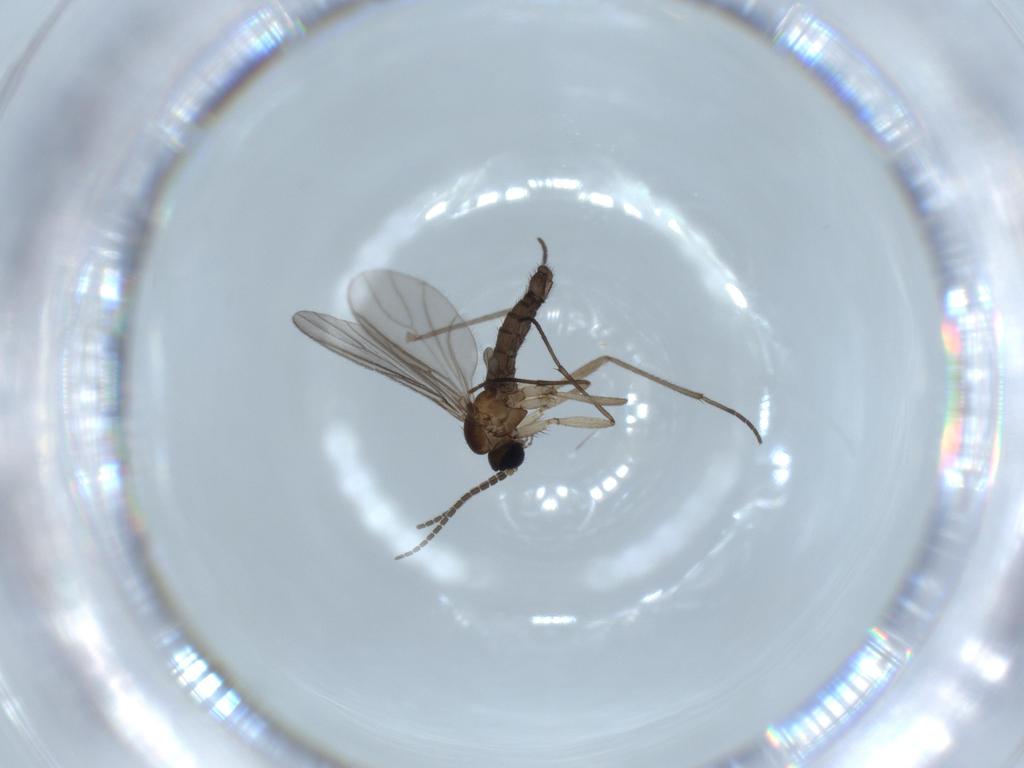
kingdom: Animalia
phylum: Arthropoda
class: Insecta
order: Diptera
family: Sciaridae
